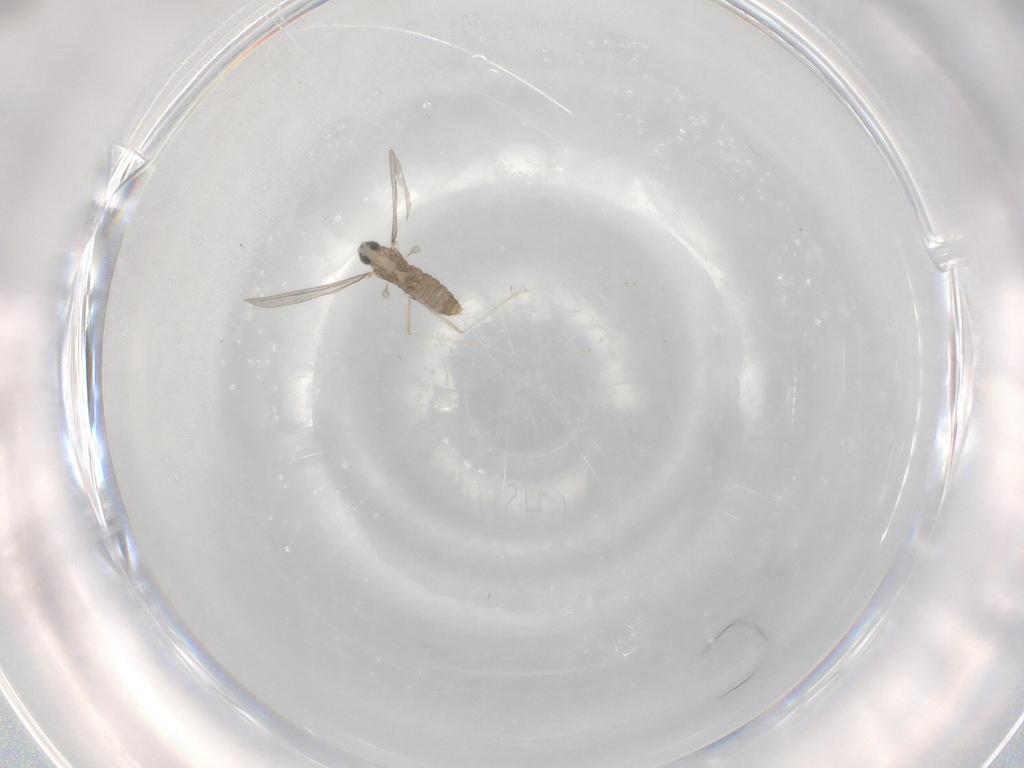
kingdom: Animalia
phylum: Arthropoda
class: Insecta
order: Diptera
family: Cecidomyiidae
